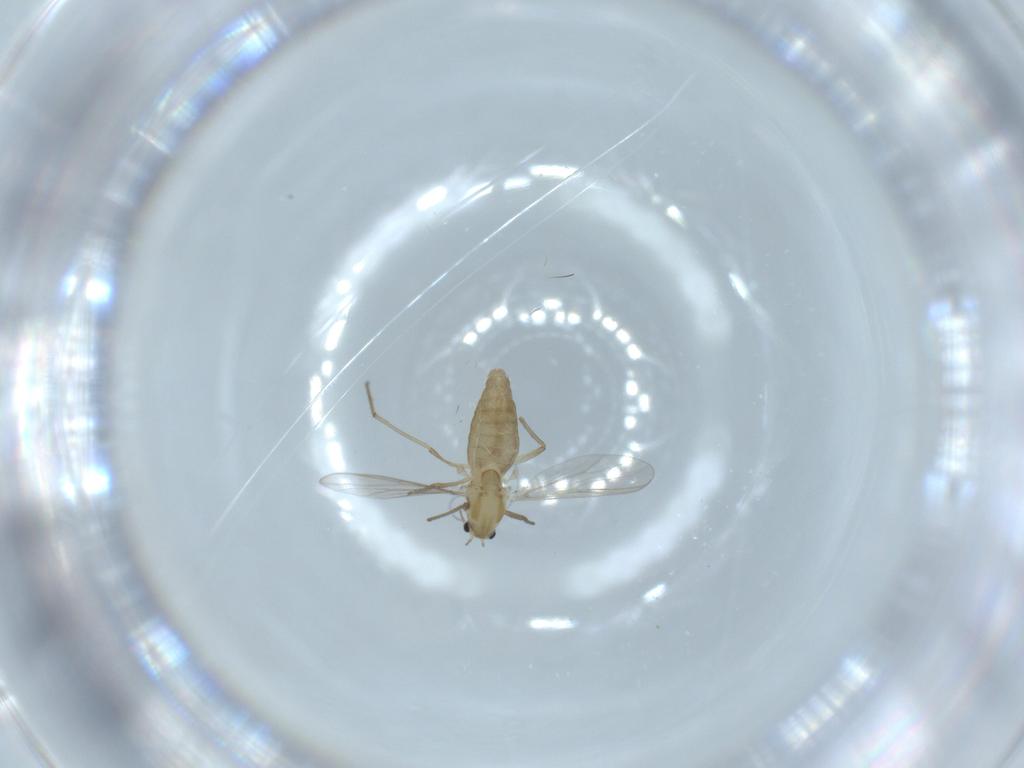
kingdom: Animalia
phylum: Arthropoda
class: Insecta
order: Diptera
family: Chironomidae
